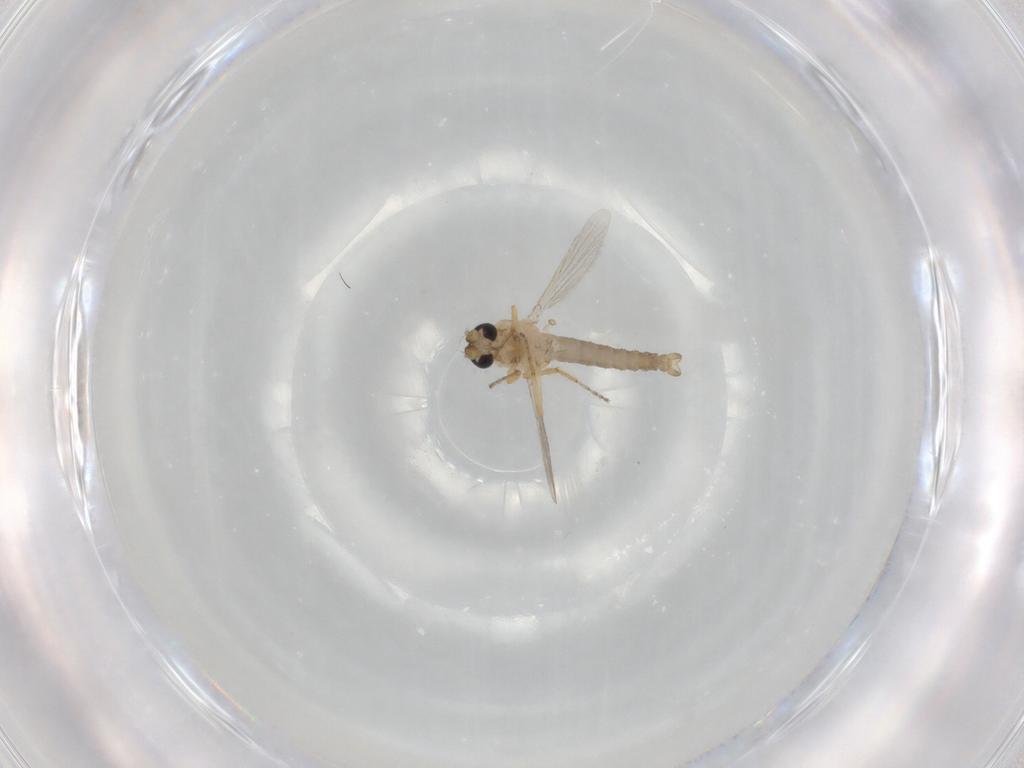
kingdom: Animalia
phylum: Arthropoda
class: Insecta
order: Diptera
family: Ceratopogonidae
